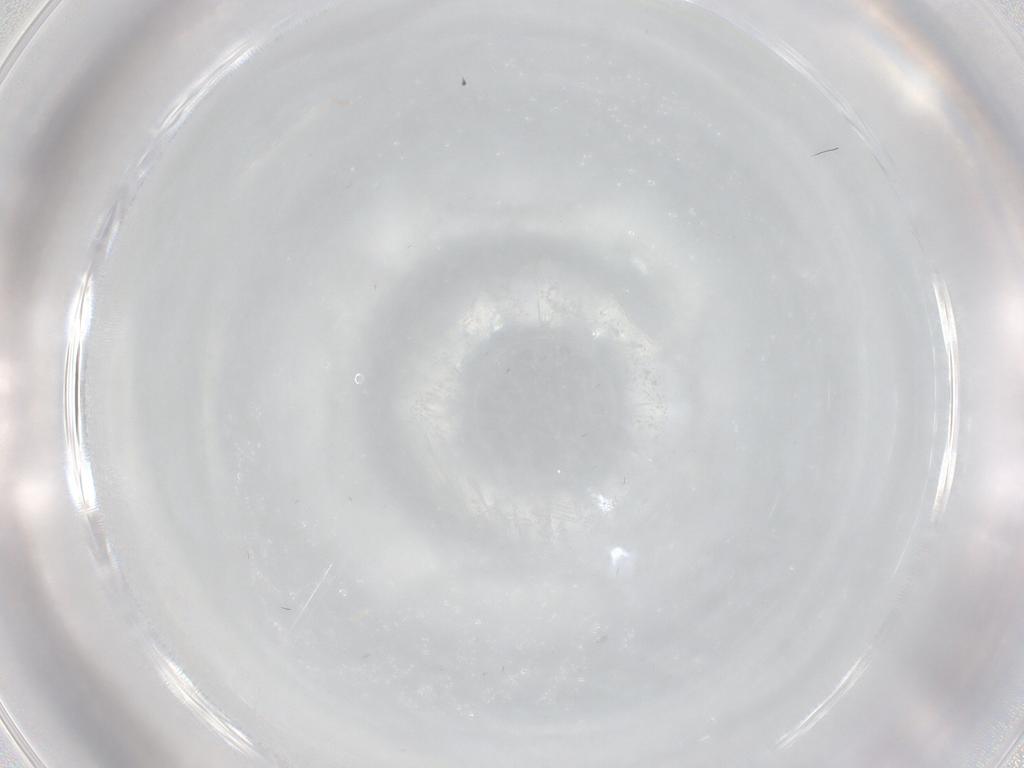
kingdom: Animalia
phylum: Arthropoda
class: Insecta
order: Diptera
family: Cecidomyiidae
